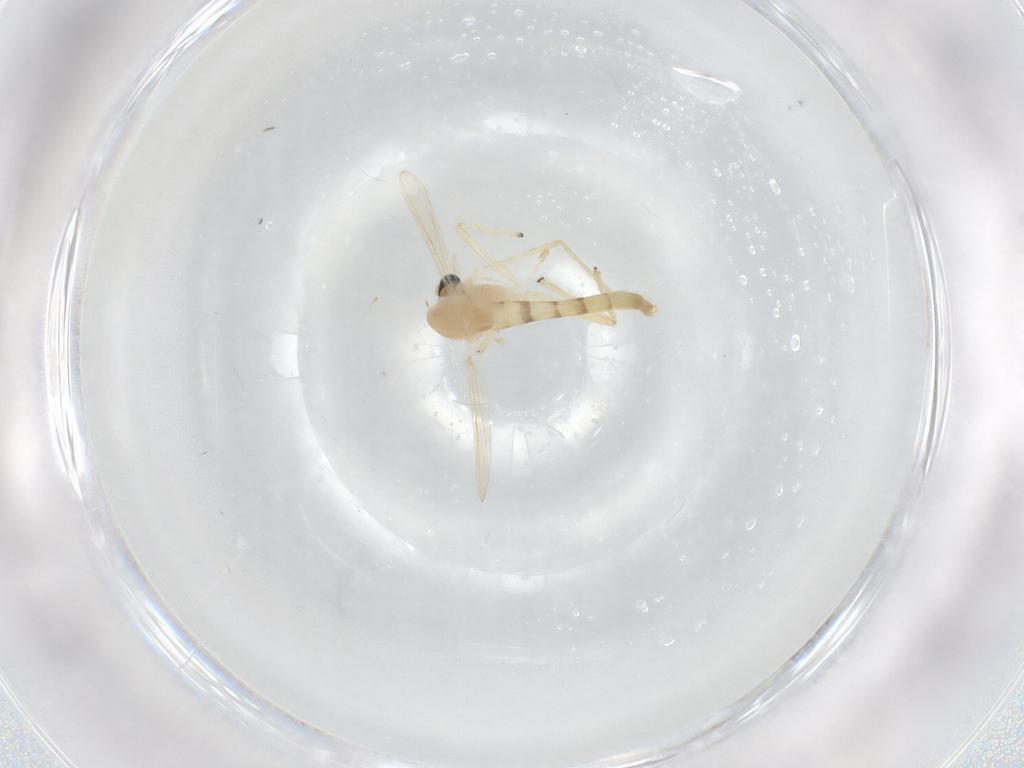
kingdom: Animalia
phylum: Arthropoda
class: Insecta
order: Diptera
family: Chironomidae
